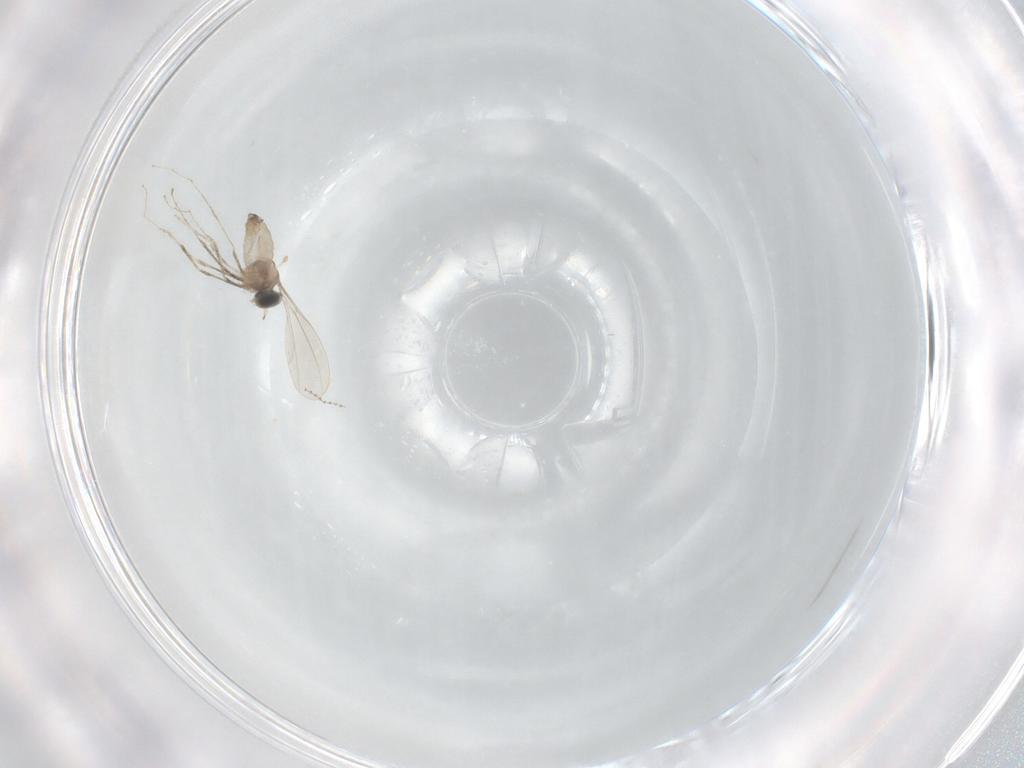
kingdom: Animalia
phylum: Arthropoda
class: Insecta
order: Diptera
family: Cecidomyiidae
